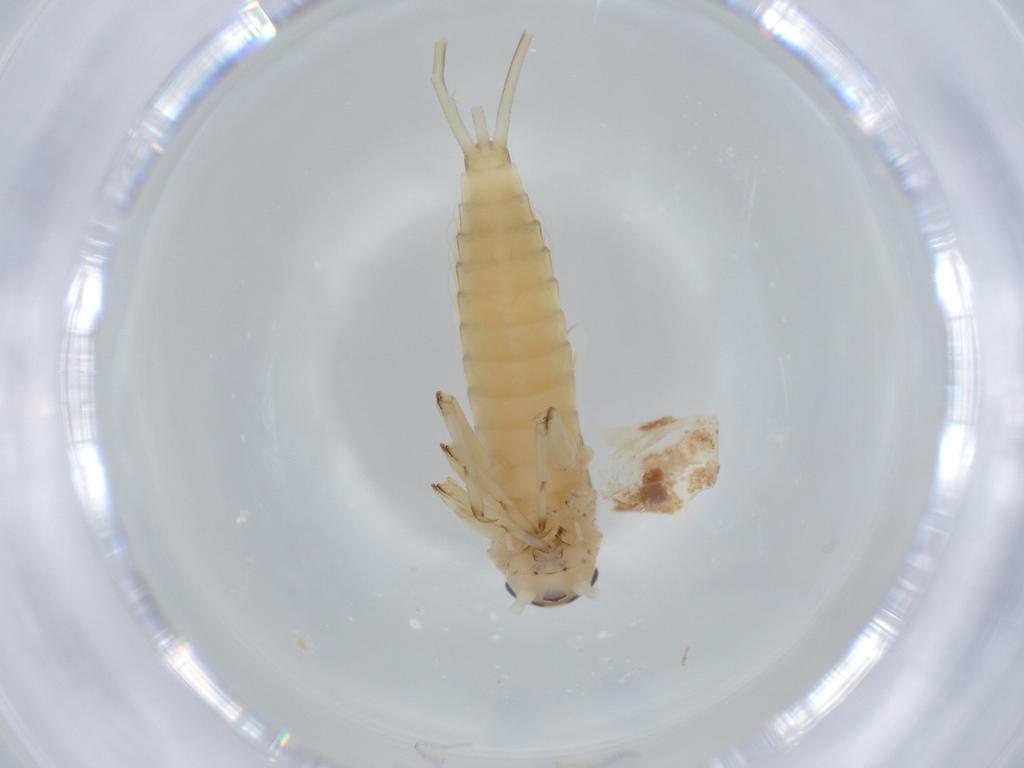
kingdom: Animalia
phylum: Arthropoda
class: Insecta
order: Ephemeroptera
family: Baetidae
